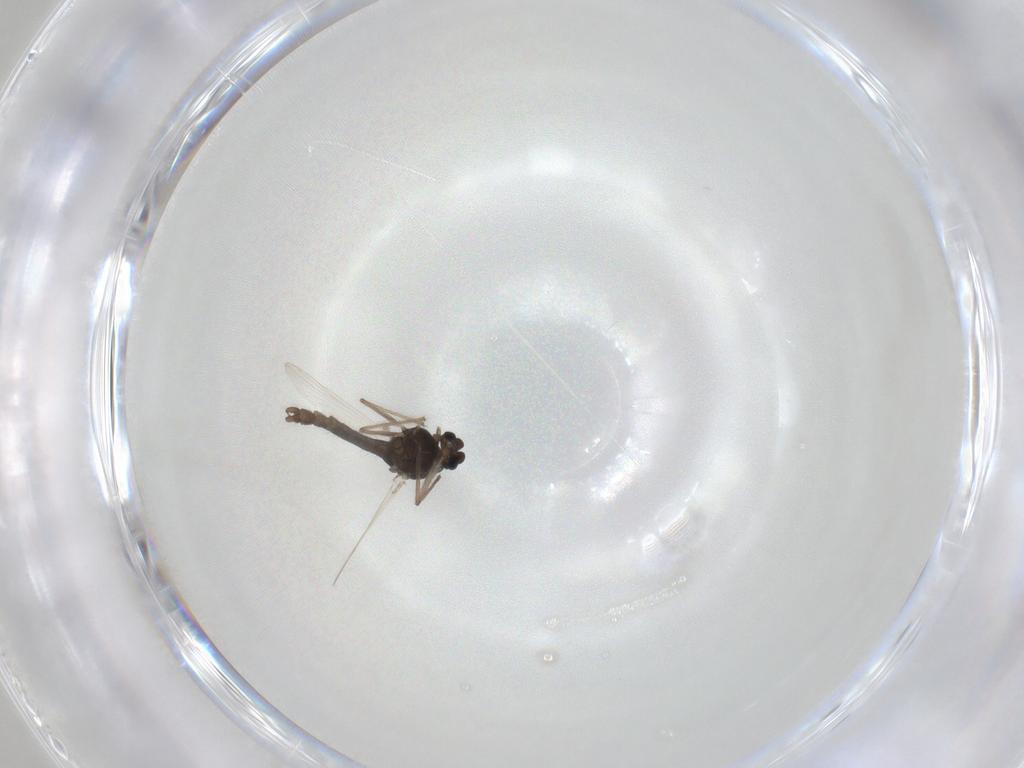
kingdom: Animalia
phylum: Arthropoda
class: Insecta
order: Diptera
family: Chironomidae
